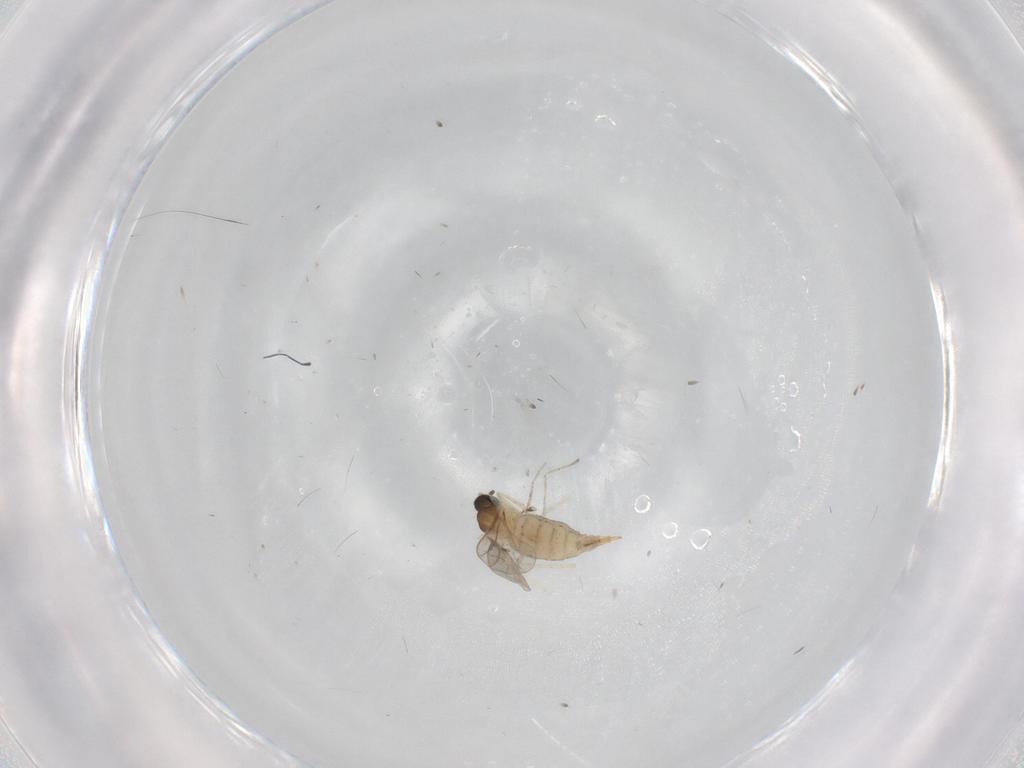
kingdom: Animalia
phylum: Arthropoda
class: Insecta
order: Diptera
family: Cecidomyiidae
